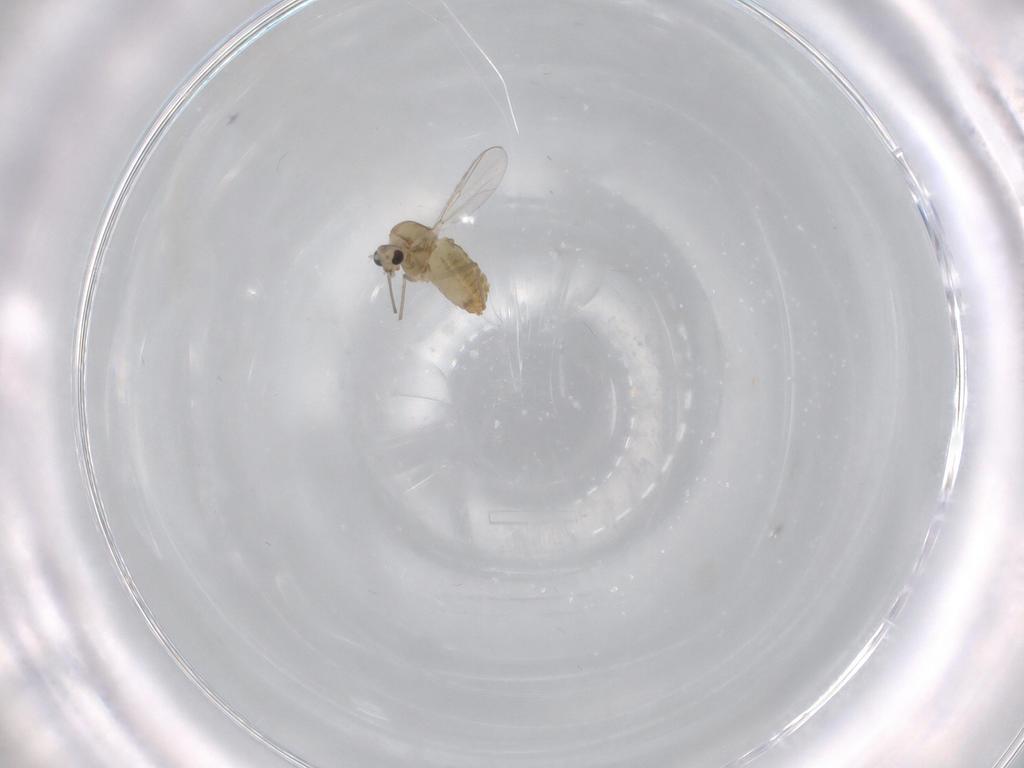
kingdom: Animalia
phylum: Arthropoda
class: Insecta
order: Diptera
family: Chironomidae
